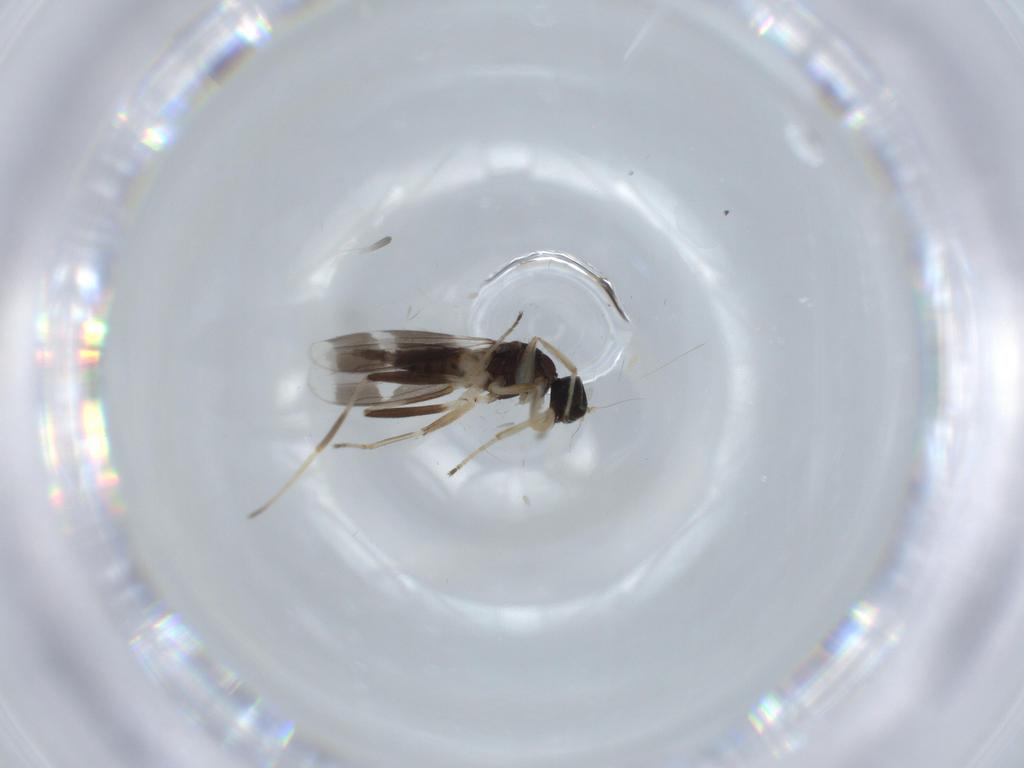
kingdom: Animalia
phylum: Arthropoda
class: Insecta
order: Diptera
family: Hybotidae
